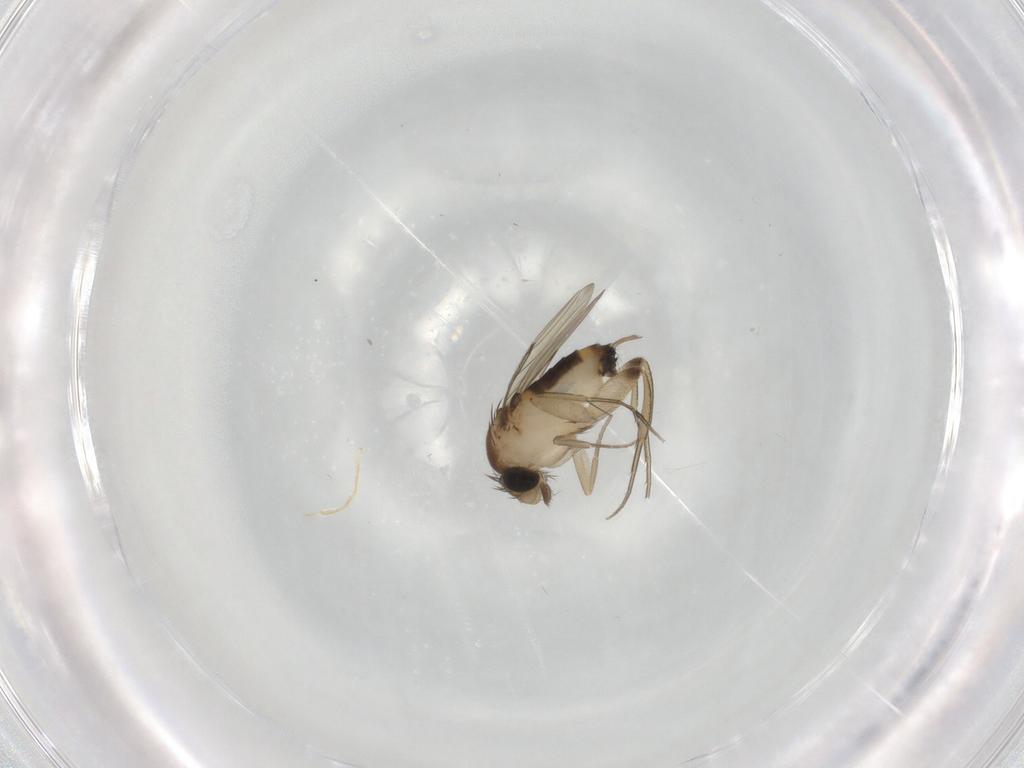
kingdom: Animalia
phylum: Arthropoda
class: Insecta
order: Diptera
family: Phoridae
